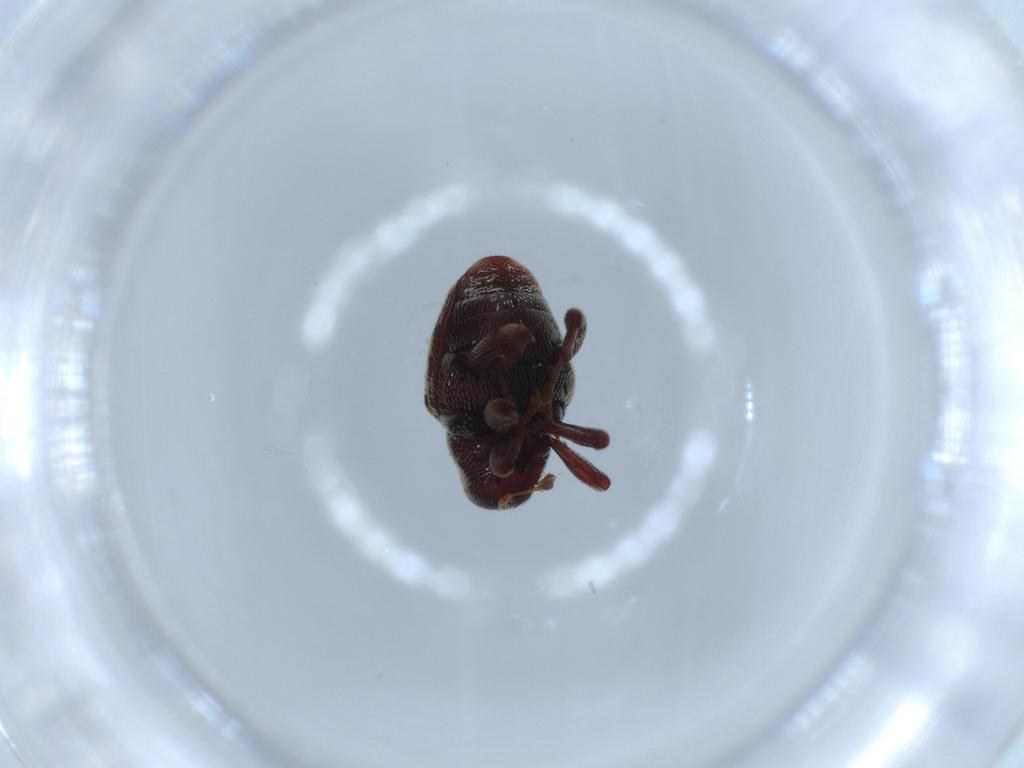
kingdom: Animalia
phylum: Arthropoda
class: Insecta
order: Coleoptera
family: Curculionidae
